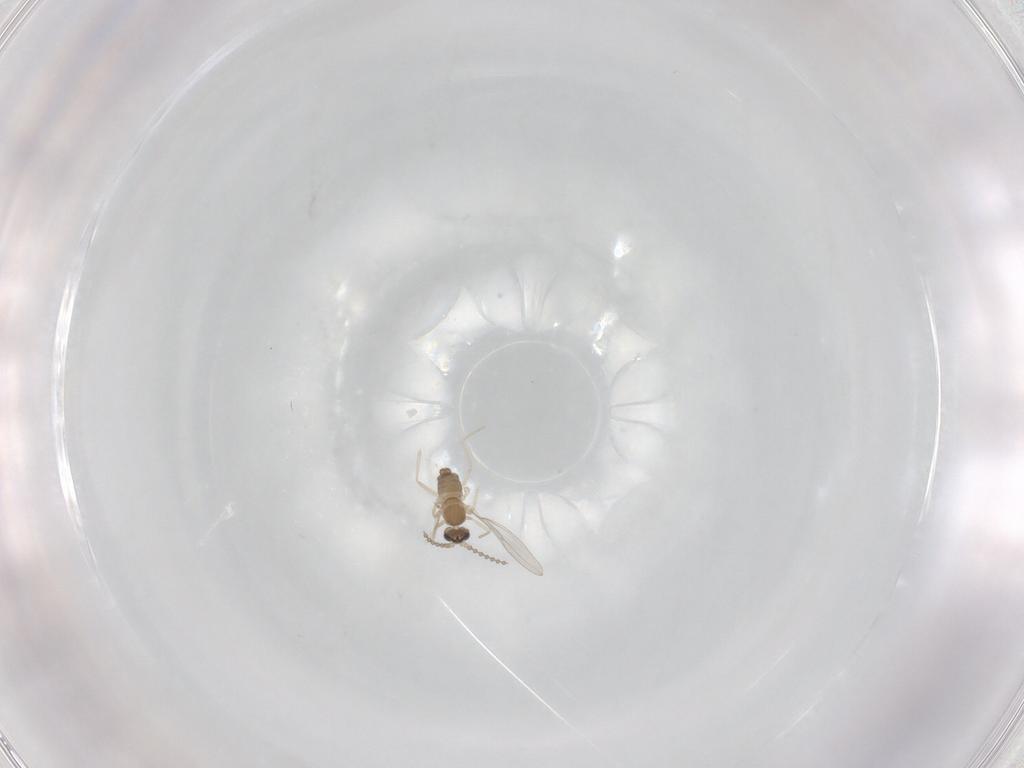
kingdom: Animalia
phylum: Arthropoda
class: Insecta
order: Diptera
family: Cecidomyiidae
